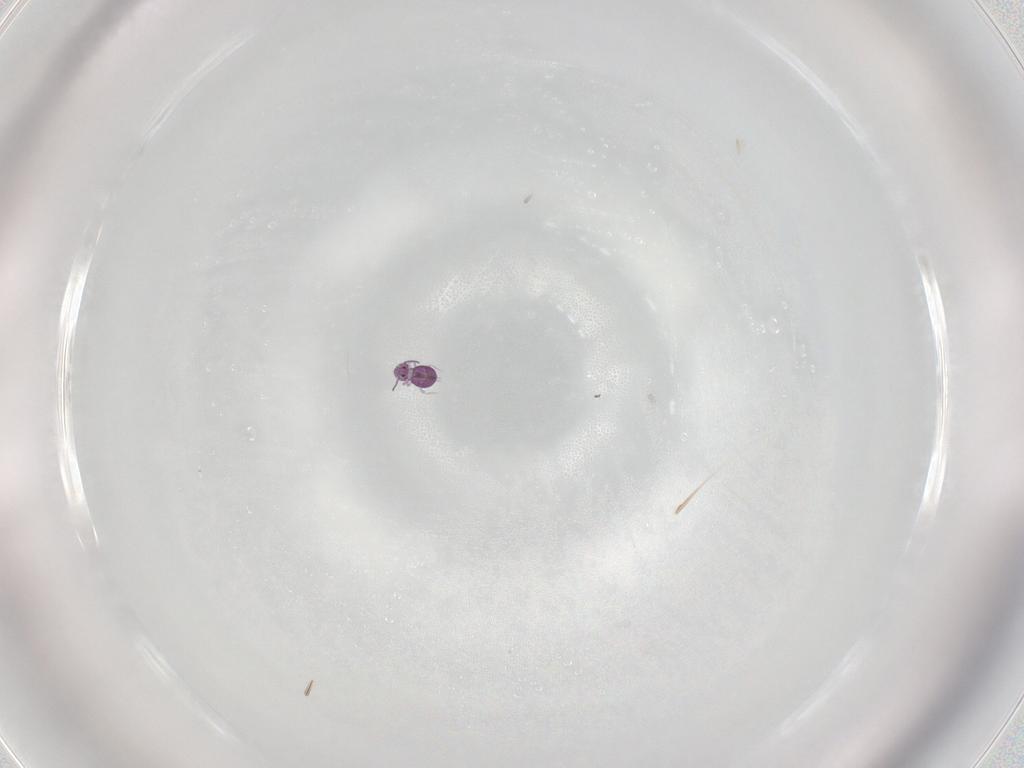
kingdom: Animalia
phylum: Arthropoda
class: Collembola
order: Symphypleona
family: Sminthurididae
